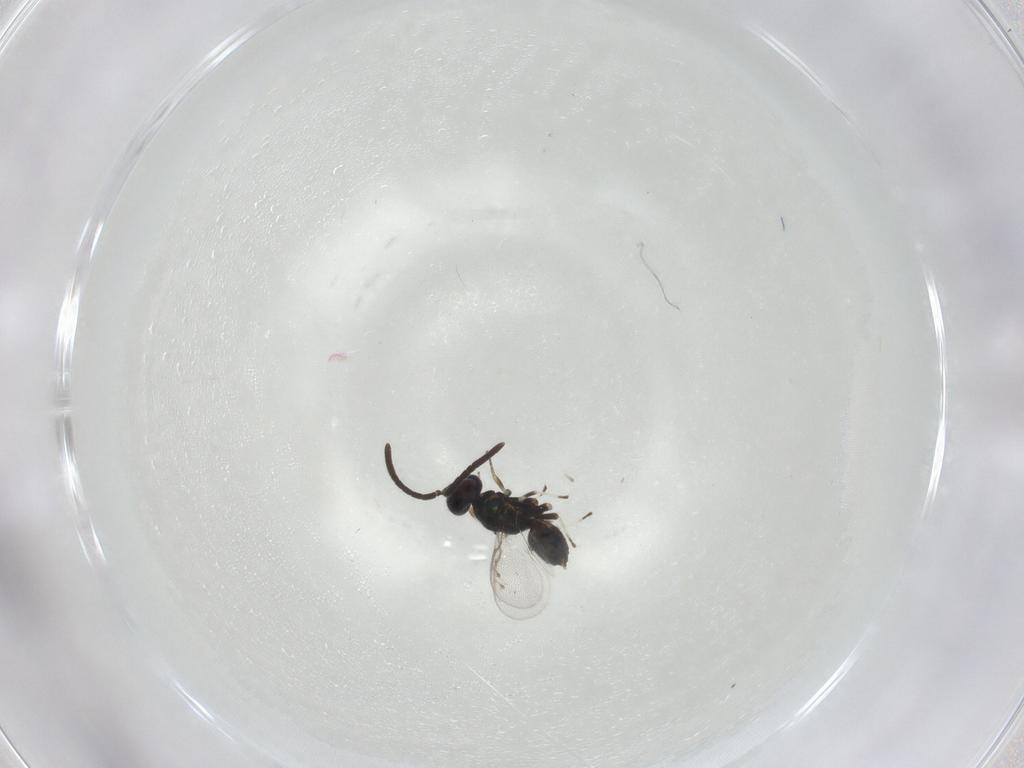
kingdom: Animalia
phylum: Arthropoda
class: Insecta
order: Hymenoptera
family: Eupelmidae
